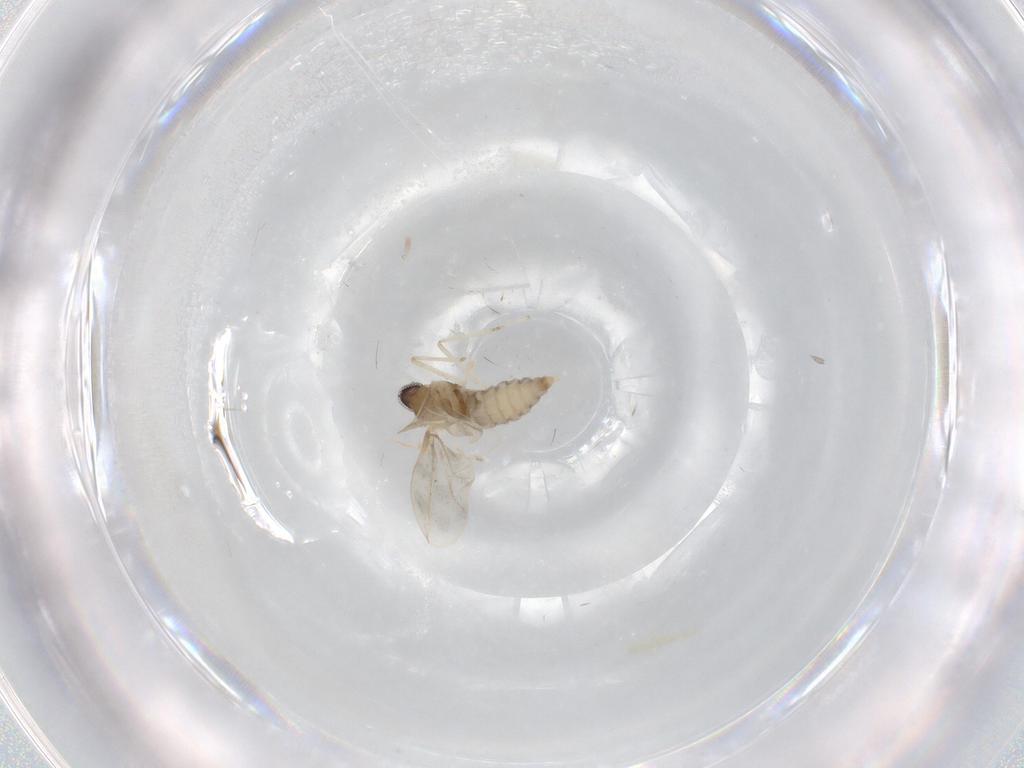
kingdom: Animalia
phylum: Arthropoda
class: Insecta
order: Diptera
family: Cecidomyiidae
